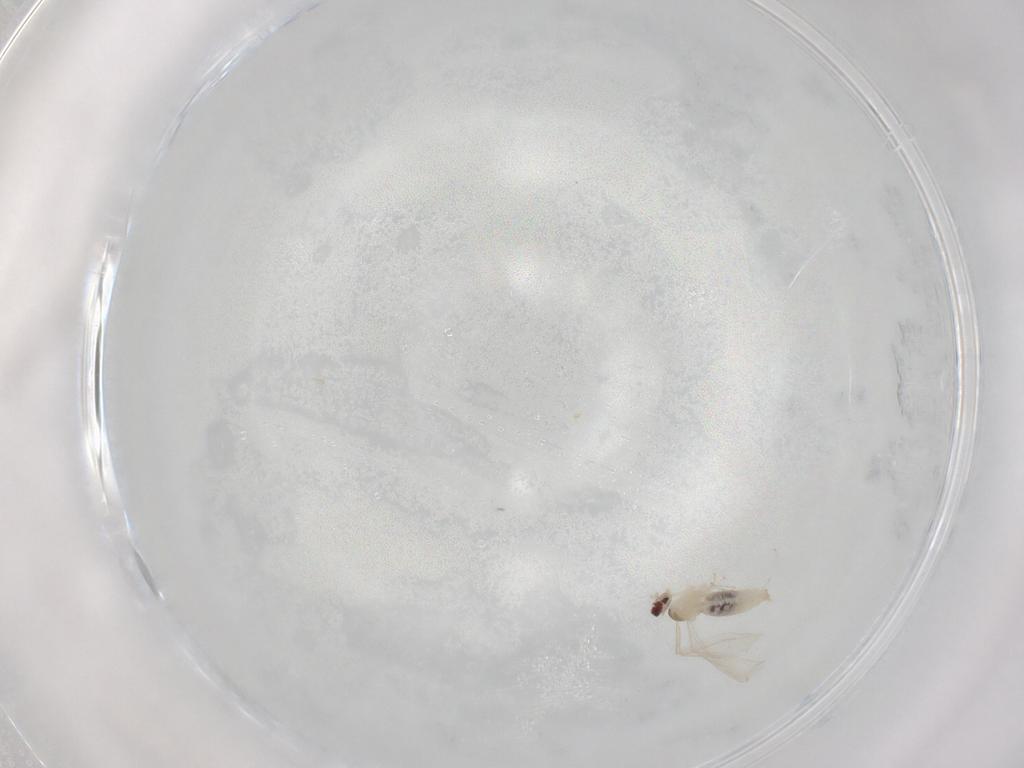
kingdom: Animalia
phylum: Arthropoda
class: Insecta
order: Diptera
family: Cecidomyiidae
